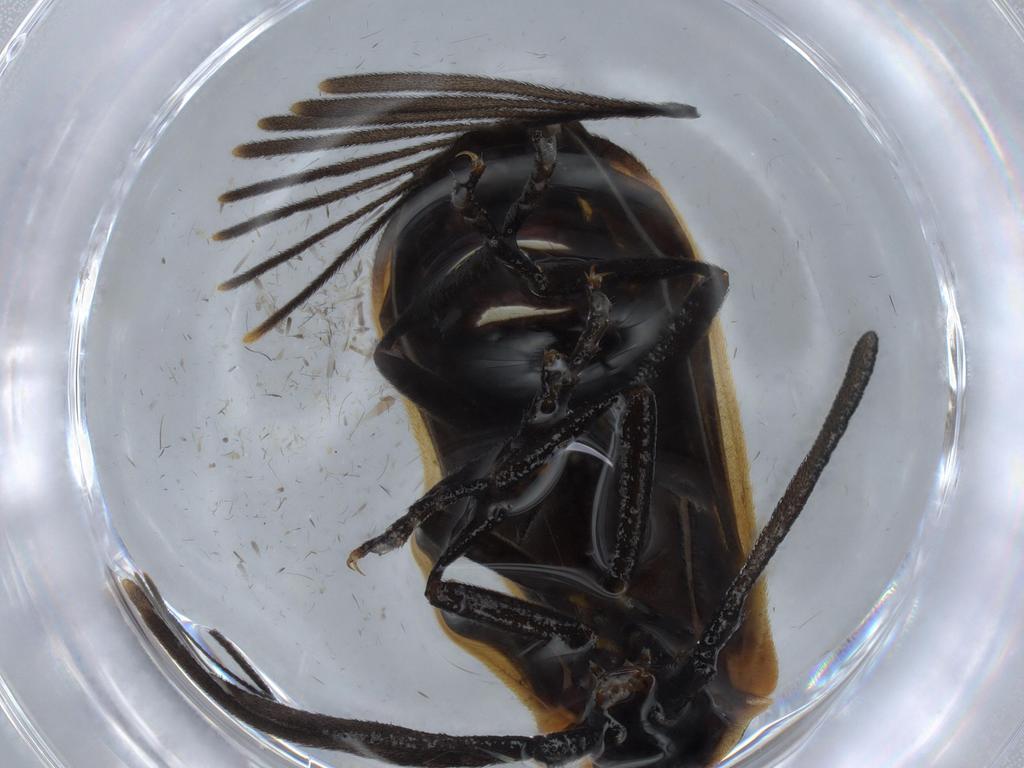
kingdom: Animalia
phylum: Arthropoda
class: Insecta
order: Coleoptera
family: Lampyridae
